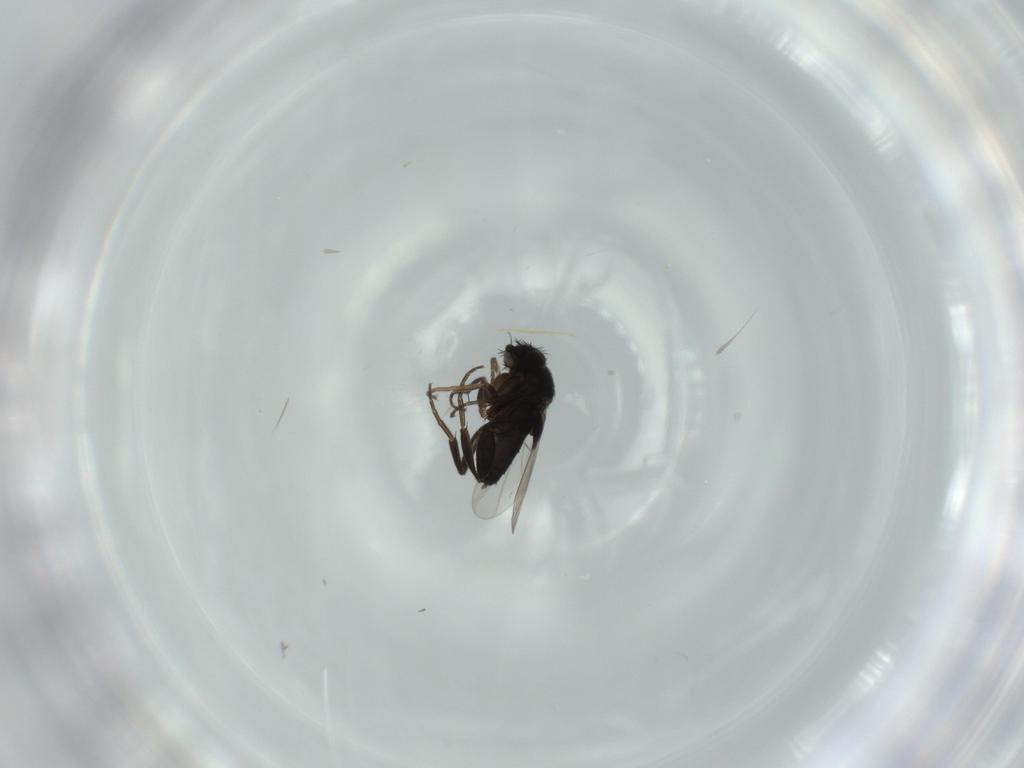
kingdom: Animalia
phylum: Arthropoda
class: Insecta
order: Diptera
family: Phoridae
